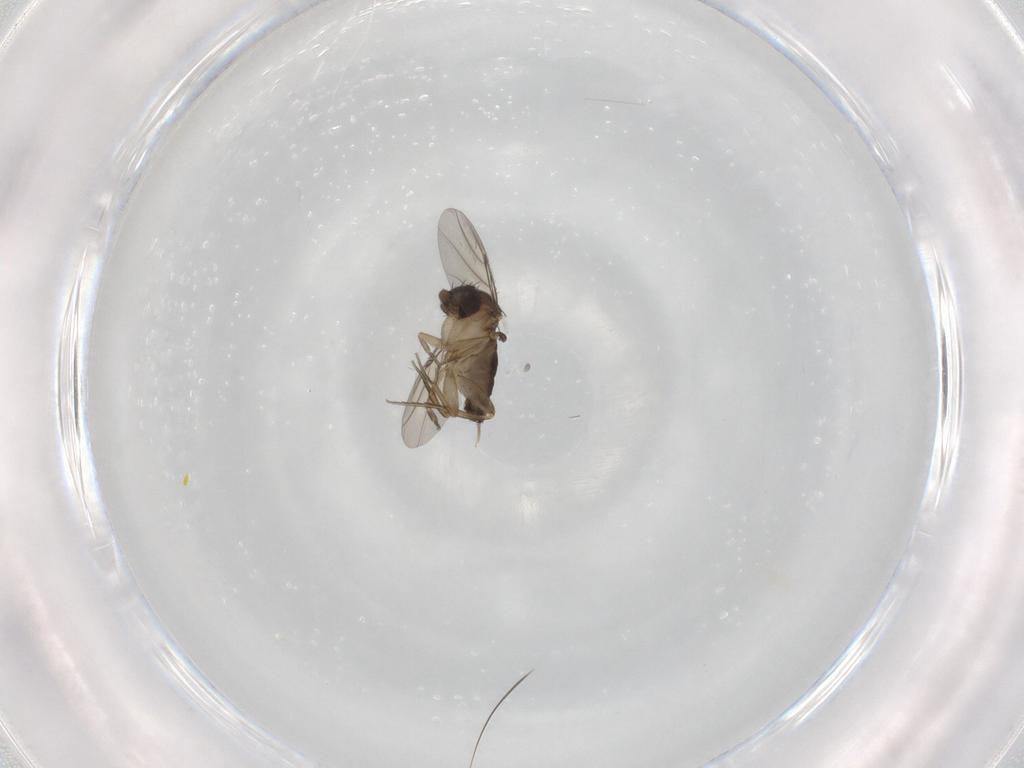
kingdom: Animalia
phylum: Arthropoda
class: Insecta
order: Diptera
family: Phoridae
